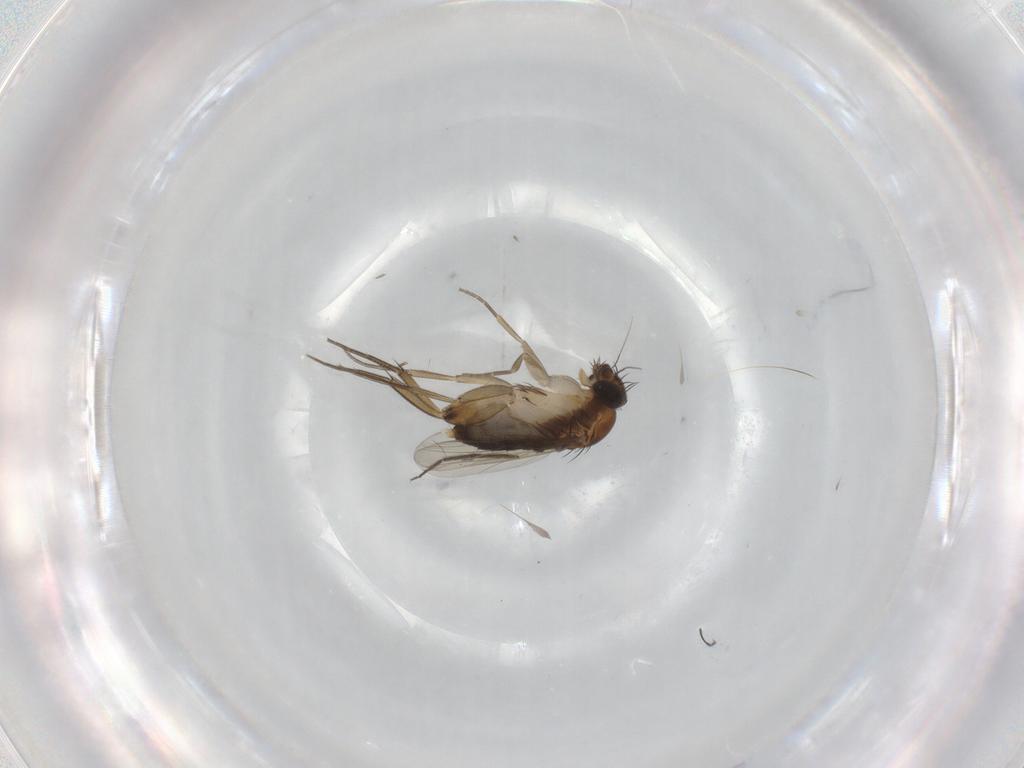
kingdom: Animalia
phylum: Arthropoda
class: Insecta
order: Diptera
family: Phoridae
